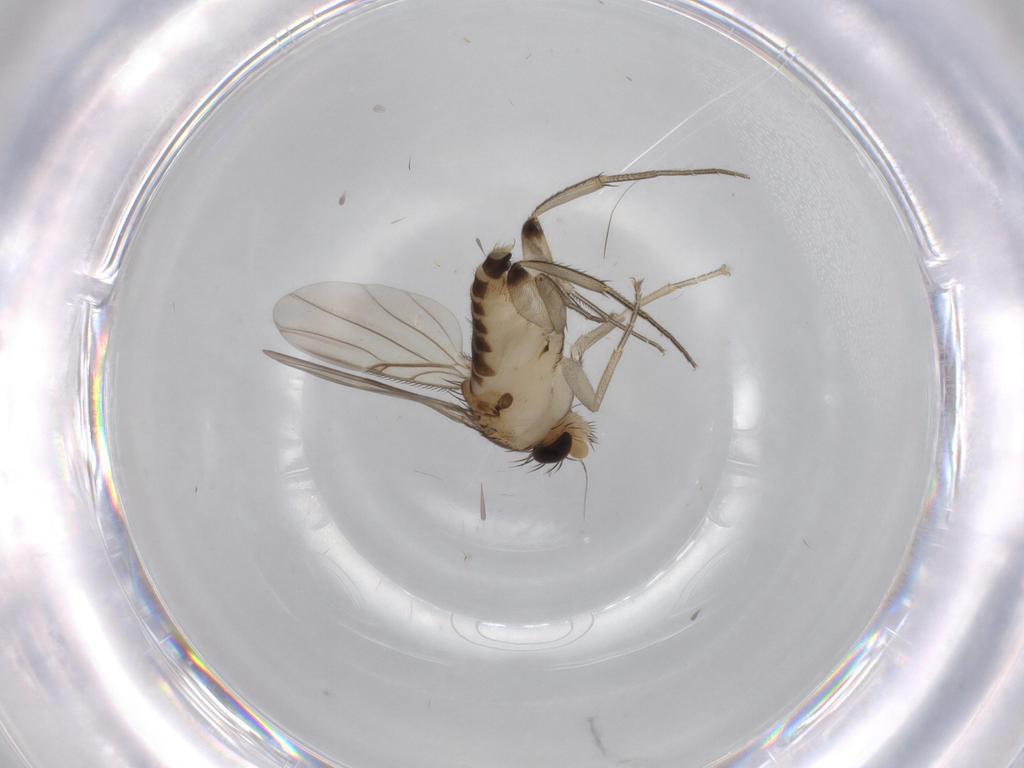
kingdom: Animalia
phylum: Arthropoda
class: Insecta
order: Diptera
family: Phoridae
